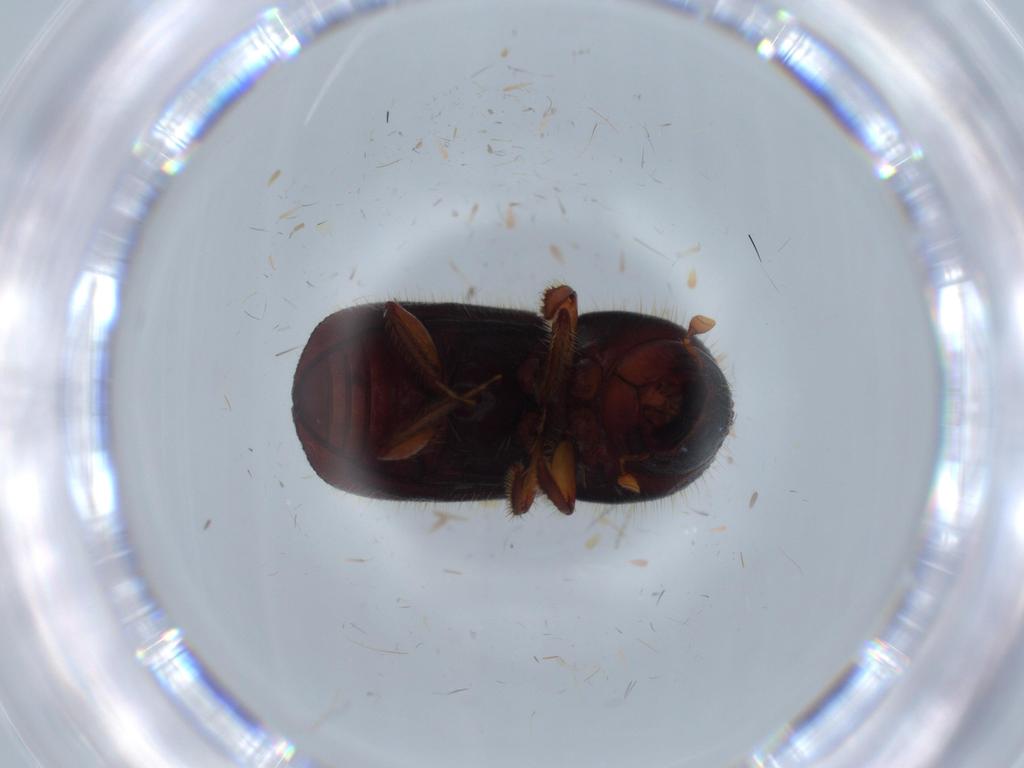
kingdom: Animalia
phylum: Arthropoda
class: Insecta
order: Coleoptera
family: Curculionidae
